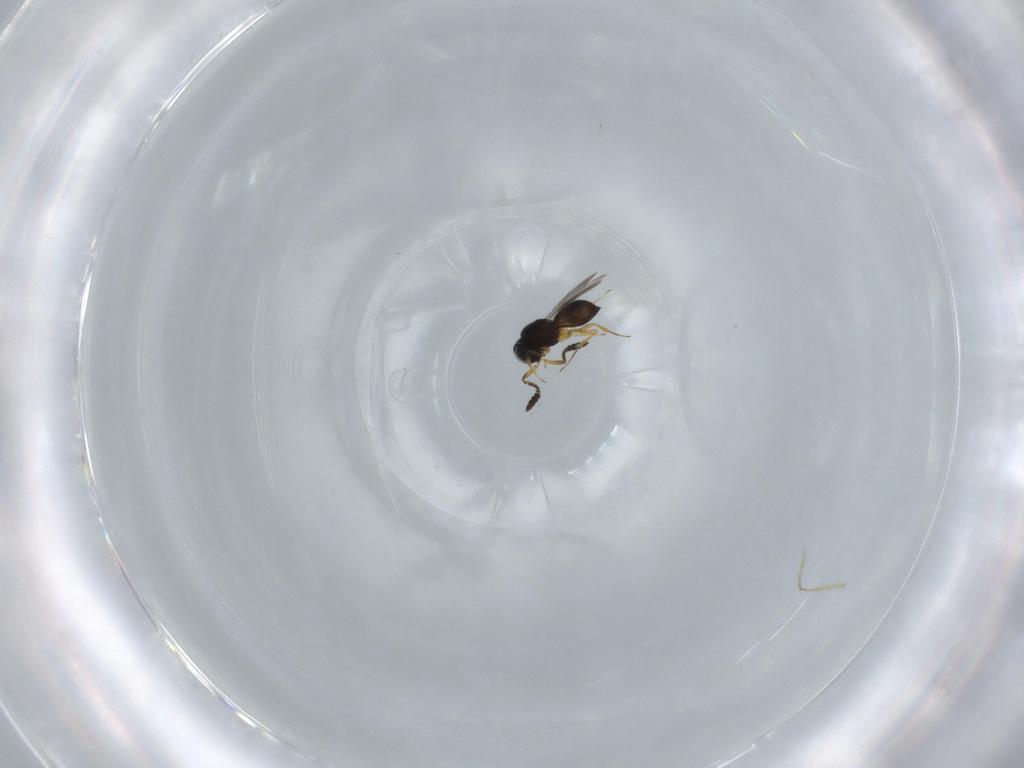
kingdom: Animalia
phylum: Arthropoda
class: Insecta
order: Hymenoptera
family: Scelionidae
